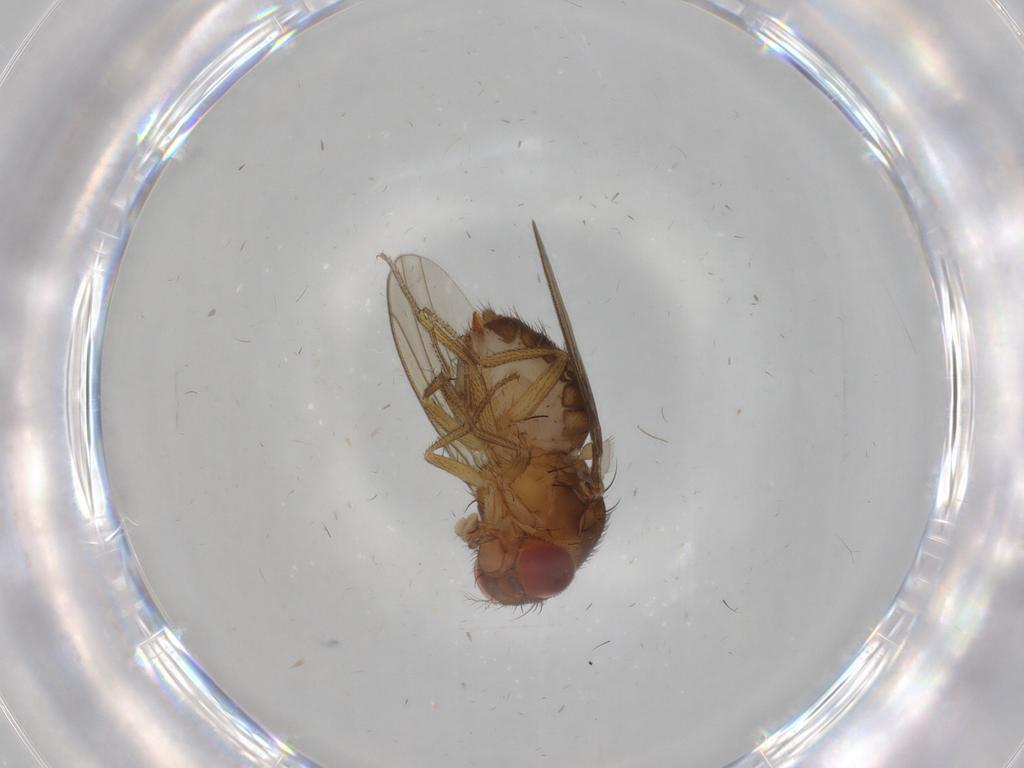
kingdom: Animalia
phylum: Arthropoda
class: Insecta
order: Diptera
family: Drosophilidae
